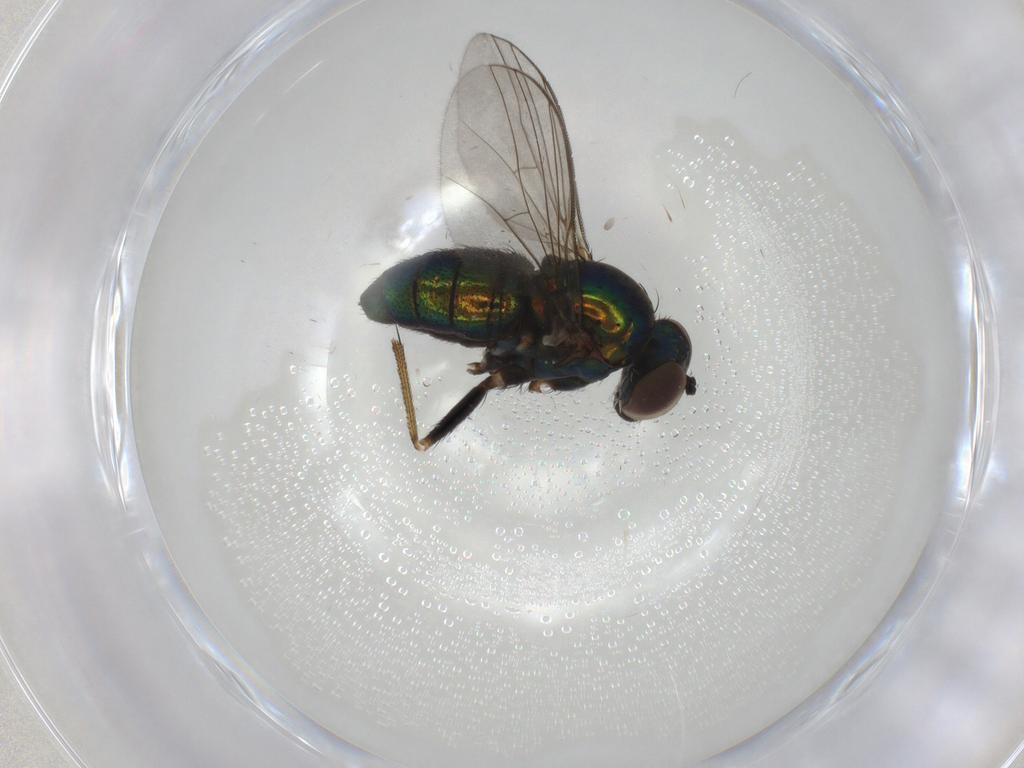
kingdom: Animalia
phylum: Arthropoda
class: Insecta
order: Diptera
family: Dolichopodidae
